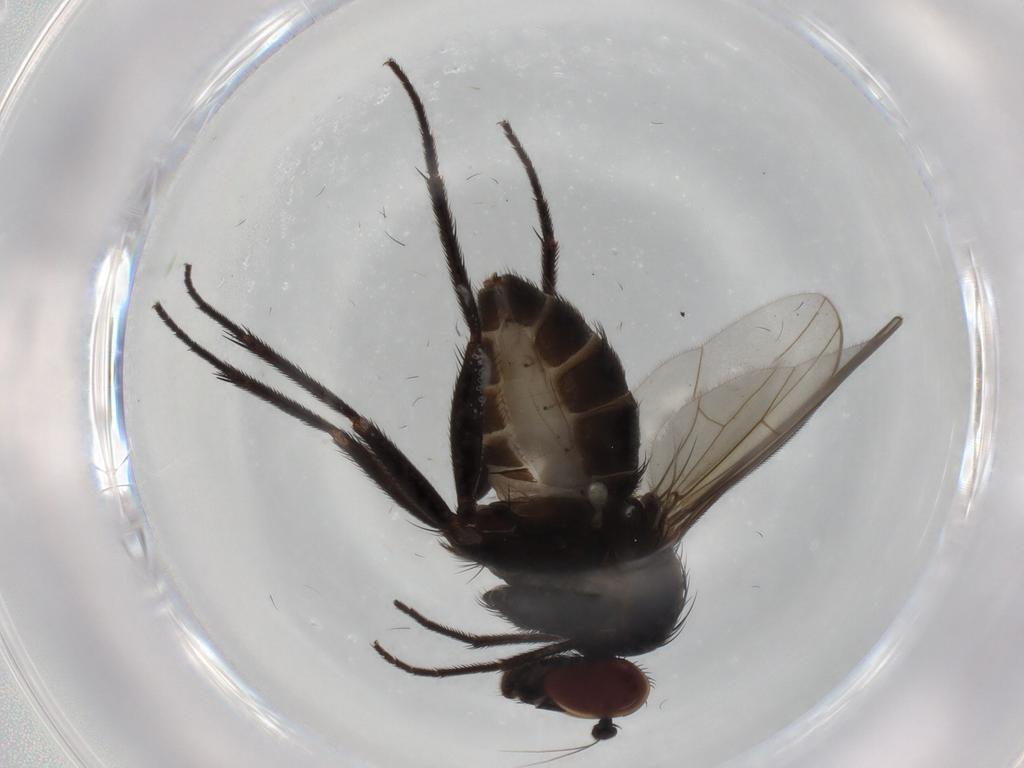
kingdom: Animalia
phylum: Arthropoda
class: Insecta
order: Diptera
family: Dolichopodidae
